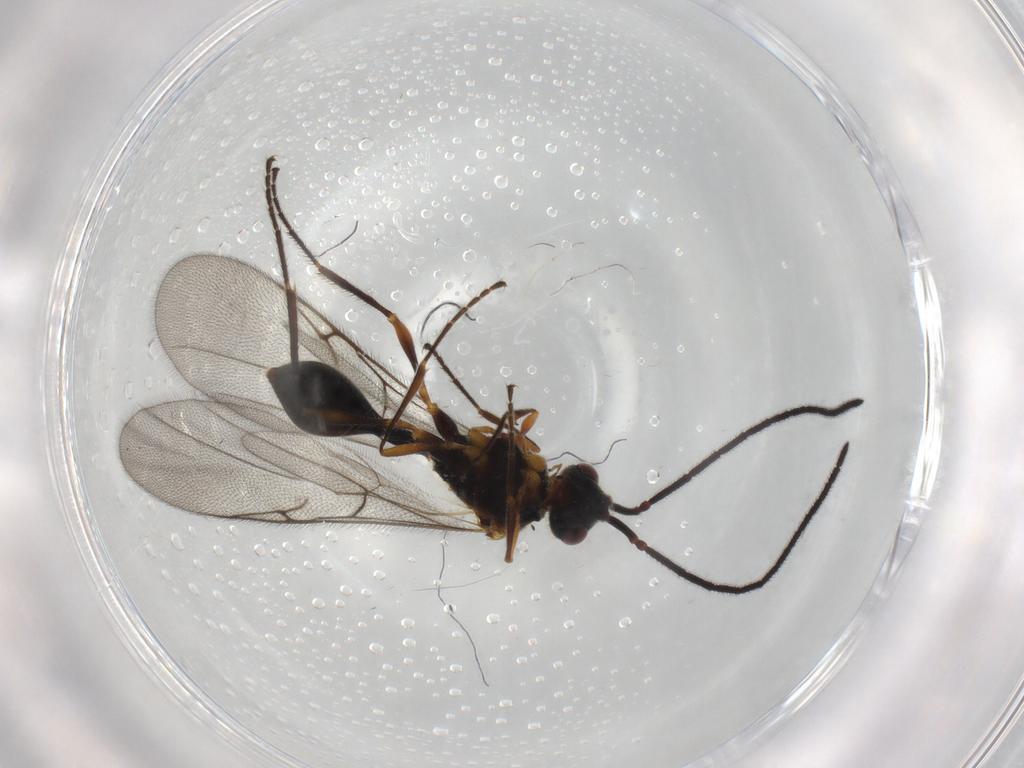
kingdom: Animalia
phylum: Arthropoda
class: Insecta
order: Hymenoptera
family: Diapriidae
